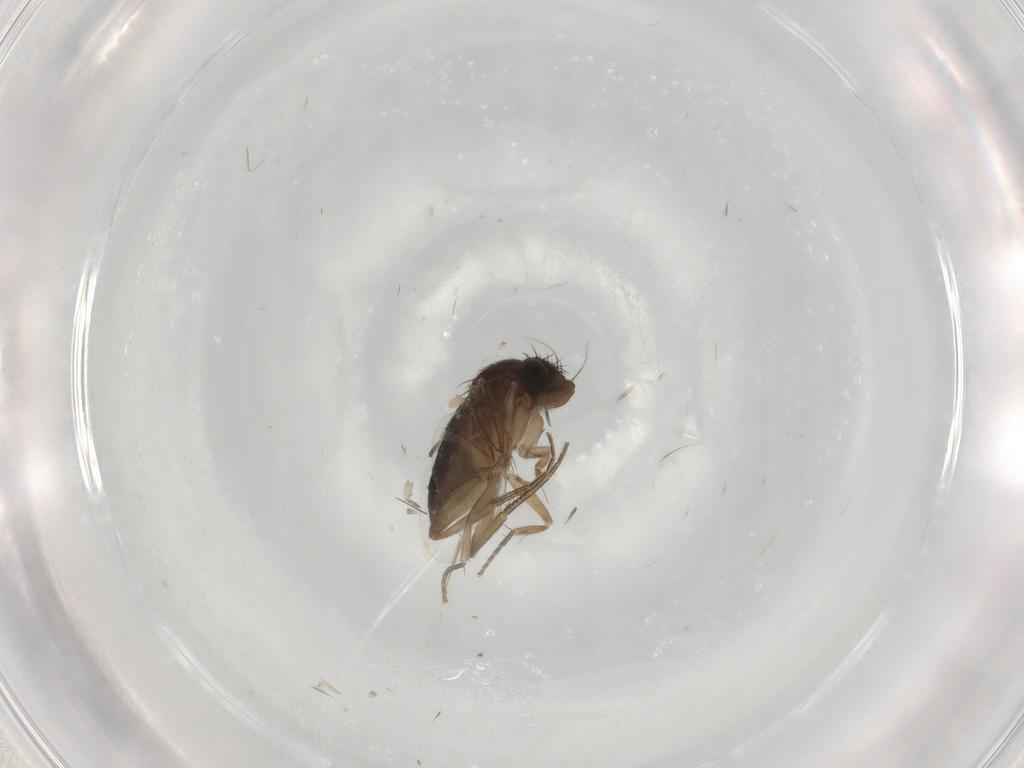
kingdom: Animalia
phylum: Arthropoda
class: Insecta
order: Diptera
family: Phoridae
